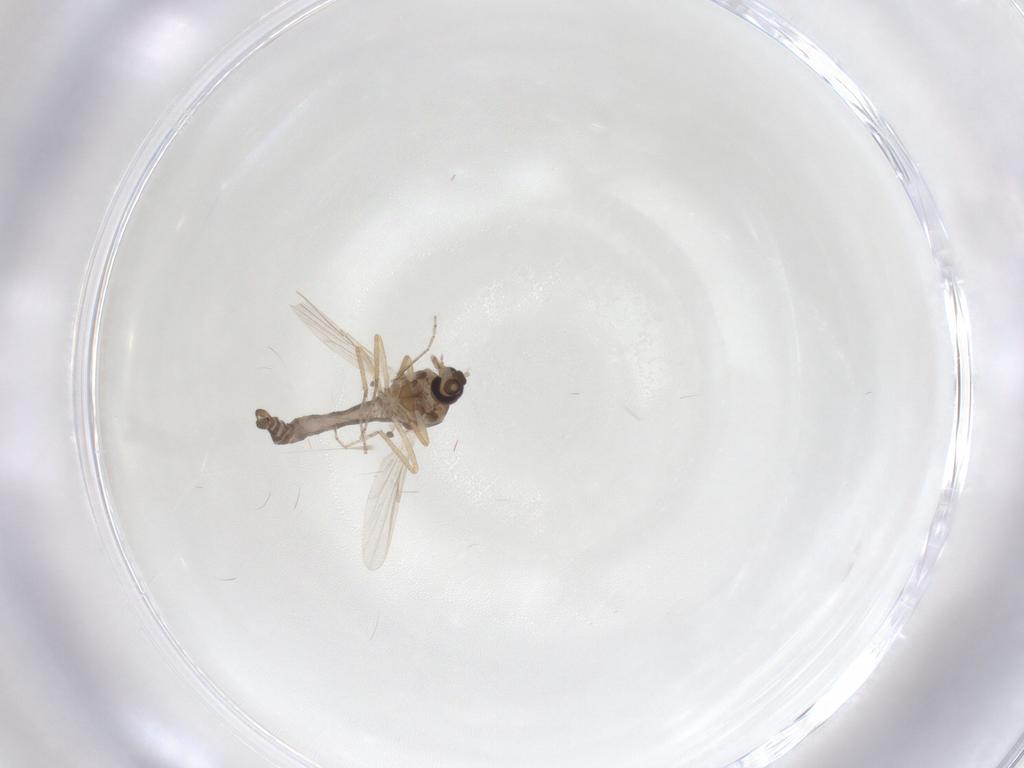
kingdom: Animalia
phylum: Arthropoda
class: Insecta
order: Diptera
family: Ceratopogonidae
